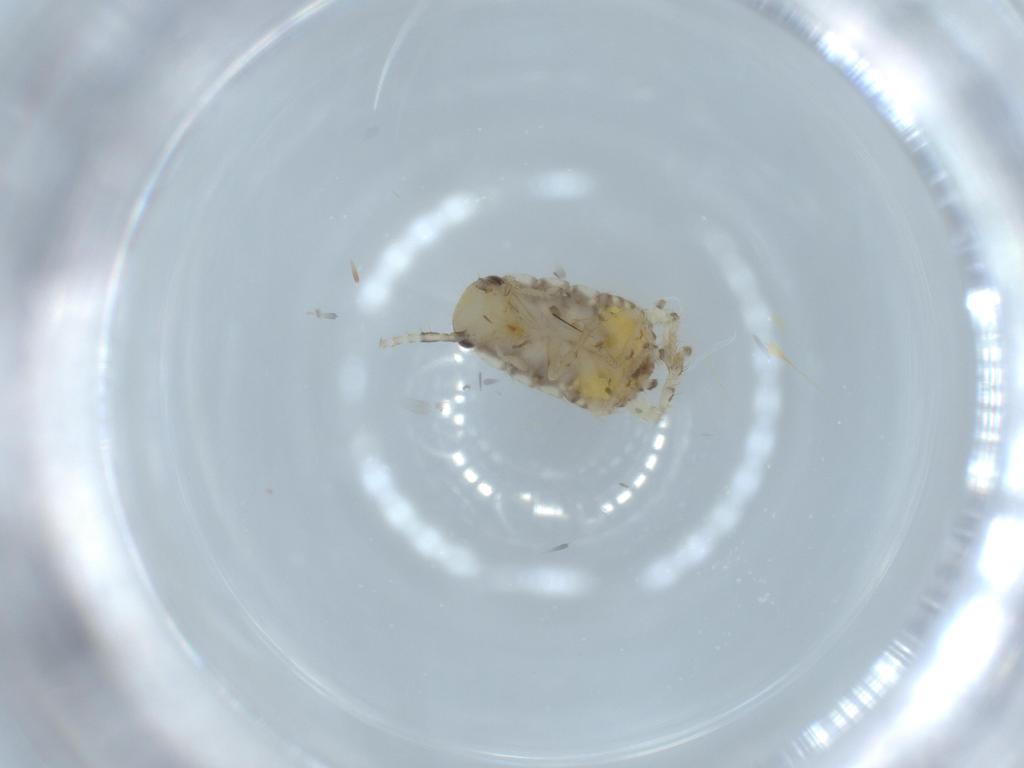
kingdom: Animalia
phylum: Arthropoda
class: Insecta
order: Blattodea
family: Ectobiidae
